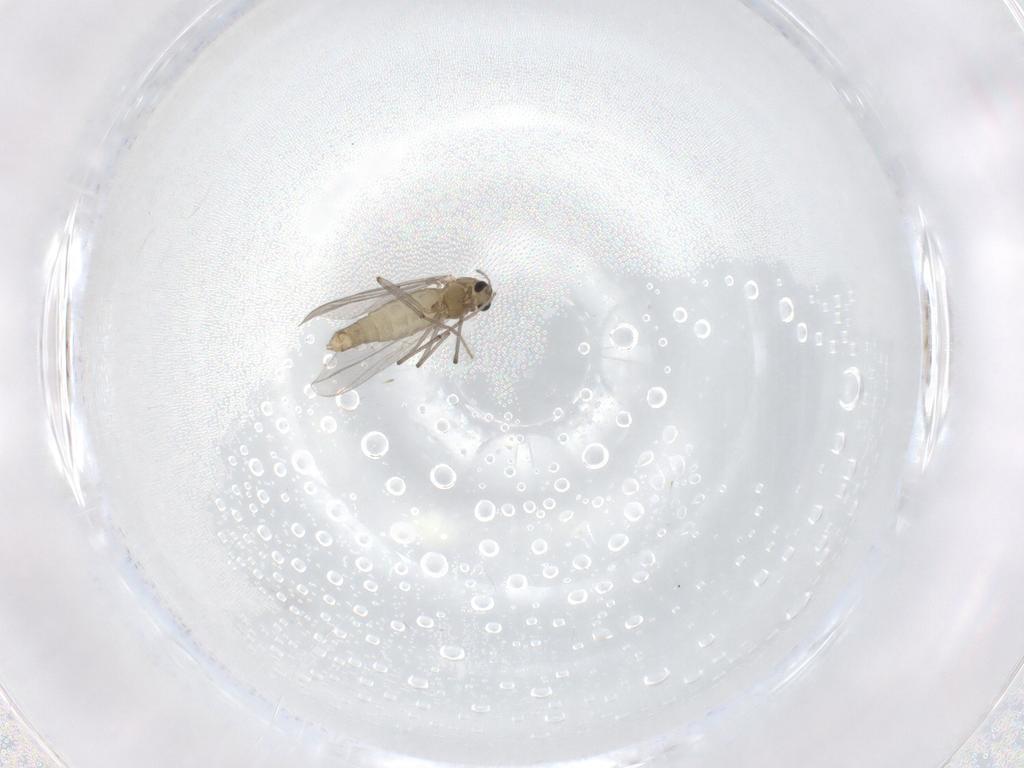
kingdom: Animalia
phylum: Arthropoda
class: Insecta
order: Diptera
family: Chironomidae
